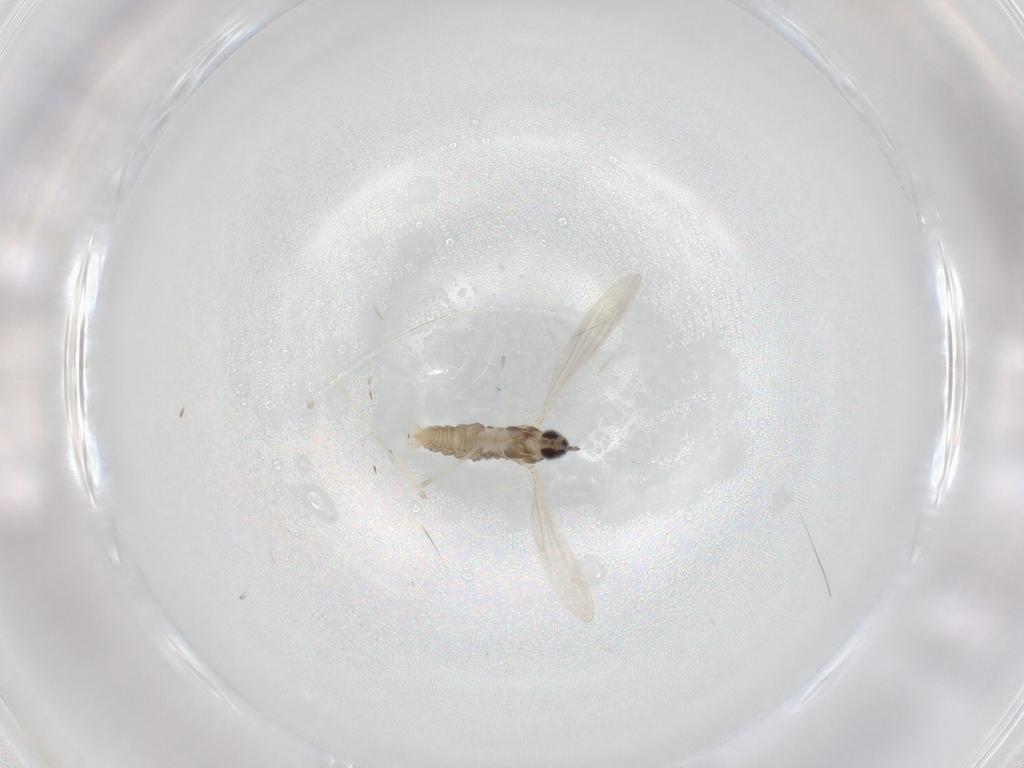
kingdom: Animalia
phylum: Arthropoda
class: Insecta
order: Diptera
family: Cecidomyiidae
